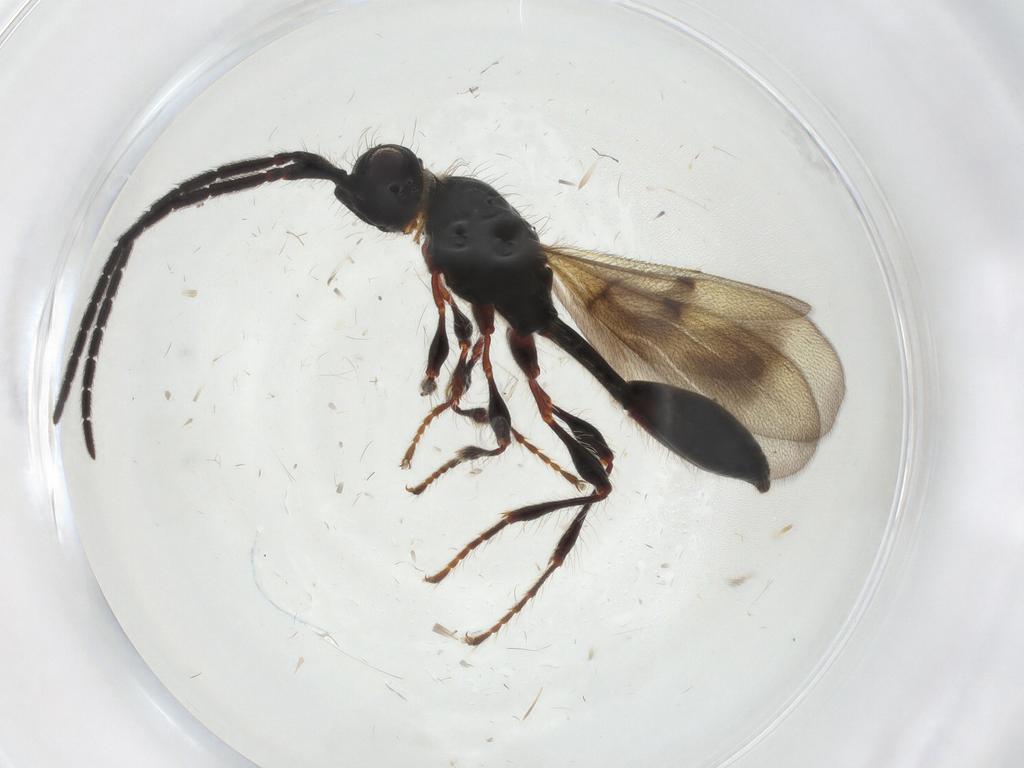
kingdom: Animalia
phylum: Arthropoda
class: Insecta
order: Hymenoptera
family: Diapriidae
